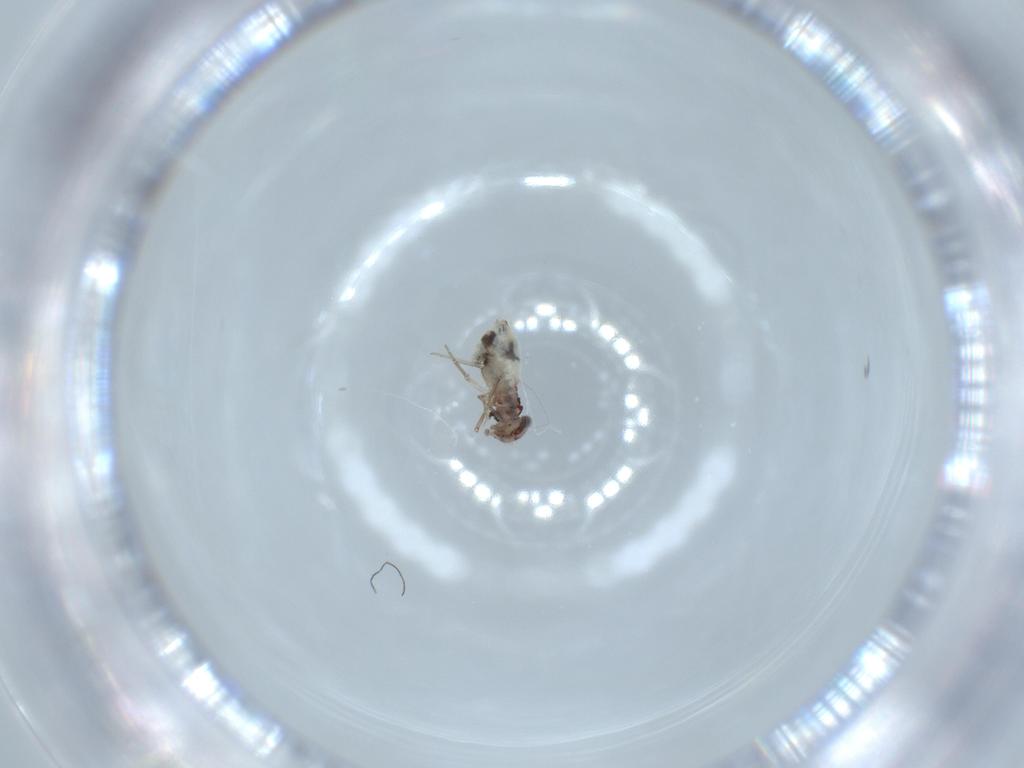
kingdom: Animalia
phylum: Arthropoda
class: Insecta
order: Psocodea
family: Lepidopsocidae
